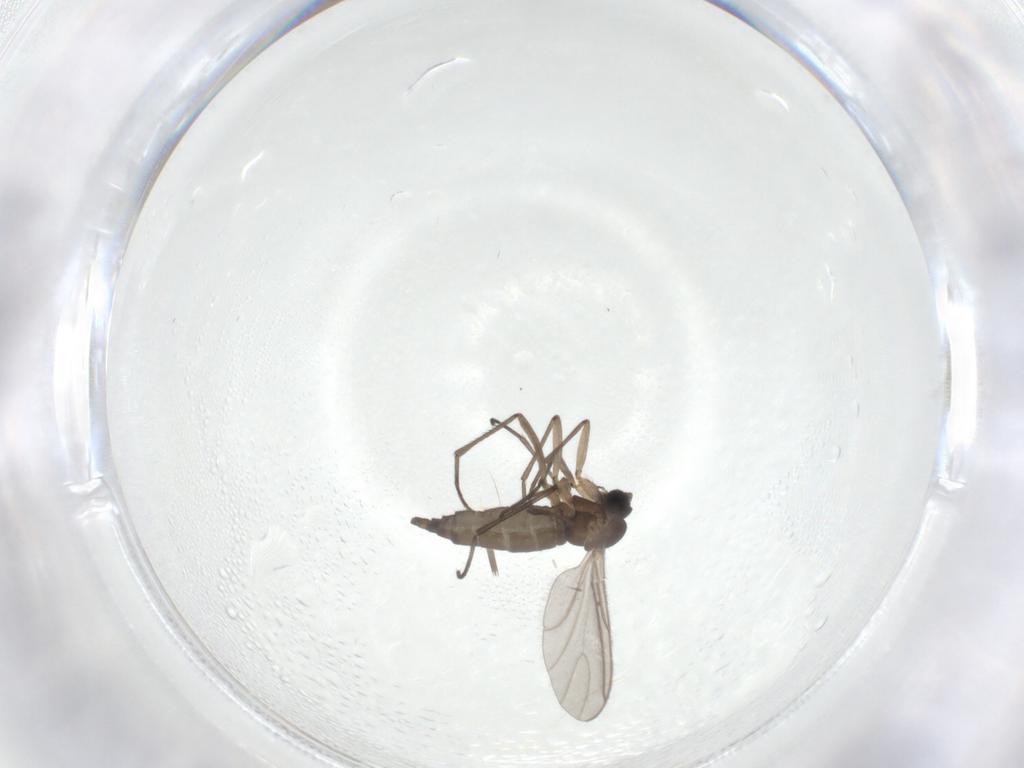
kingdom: Animalia
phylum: Arthropoda
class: Insecta
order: Diptera
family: Sciaridae
